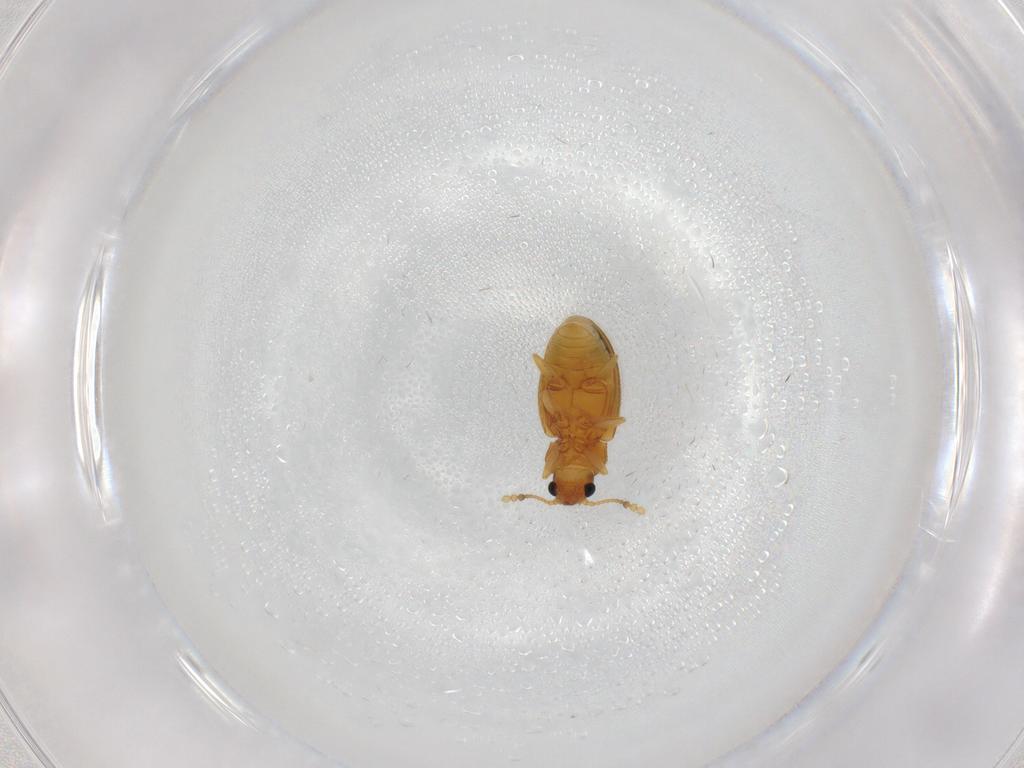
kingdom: Animalia
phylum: Arthropoda
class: Insecta
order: Coleoptera
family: Erotylidae
